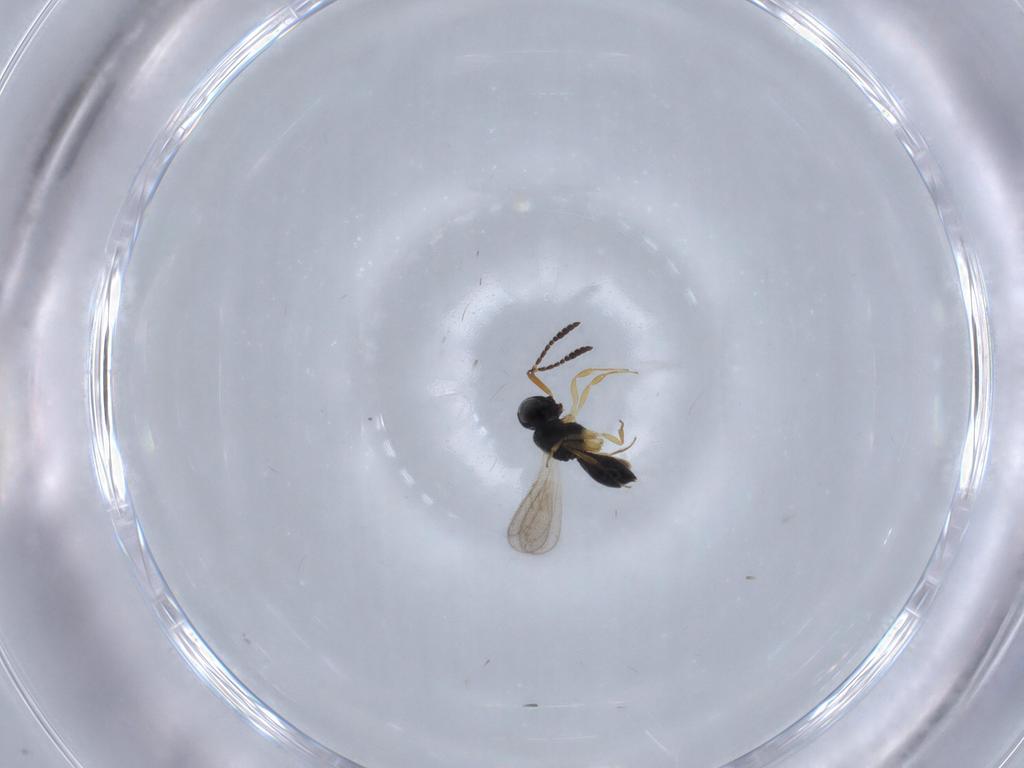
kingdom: Animalia
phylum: Arthropoda
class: Insecta
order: Hymenoptera
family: Scelionidae
